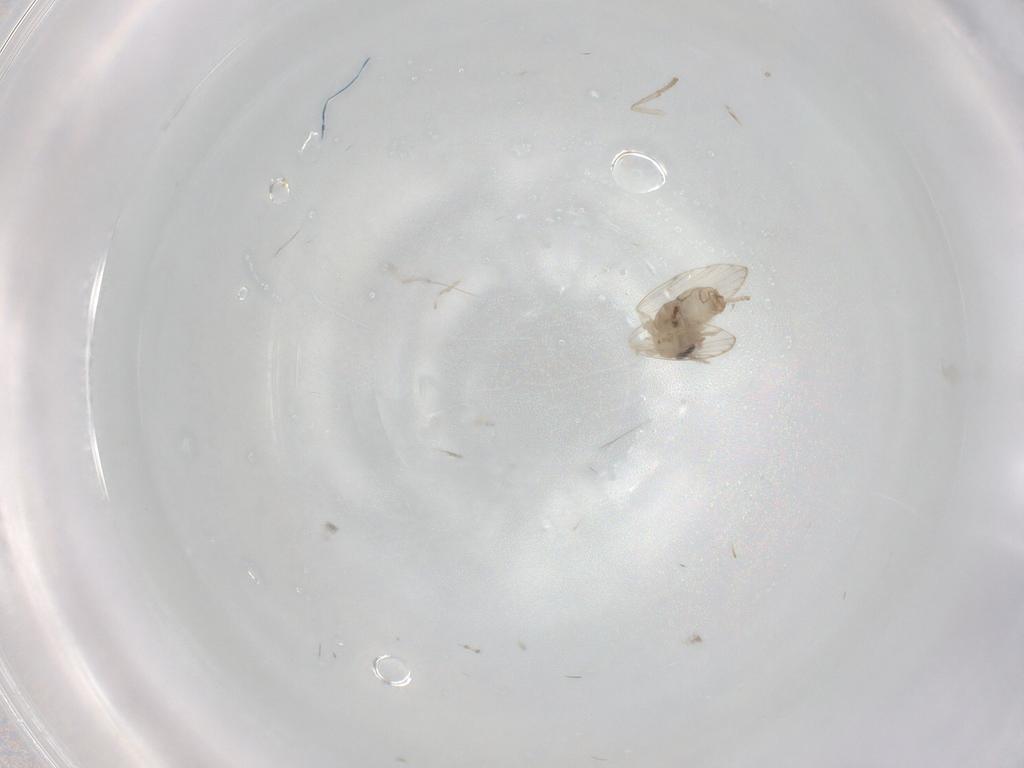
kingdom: Animalia
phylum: Arthropoda
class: Insecta
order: Diptera
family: Psychodidae
